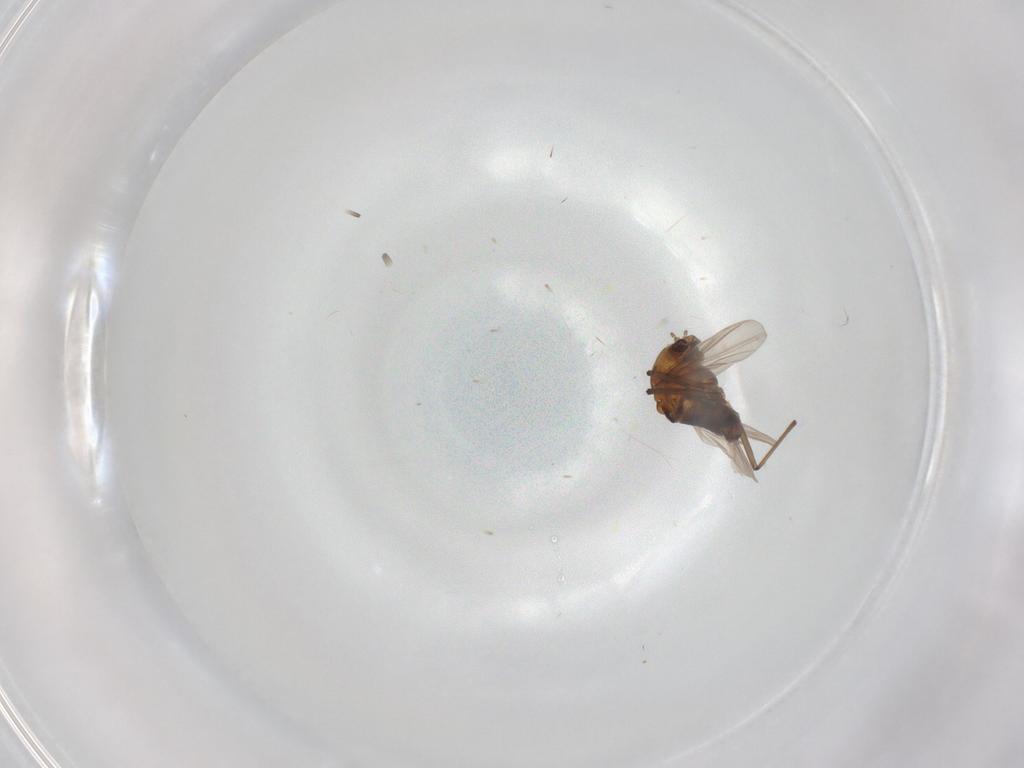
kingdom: Animalia
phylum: Arthropoda
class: Insecta
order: Diptera
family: Chironomidae
